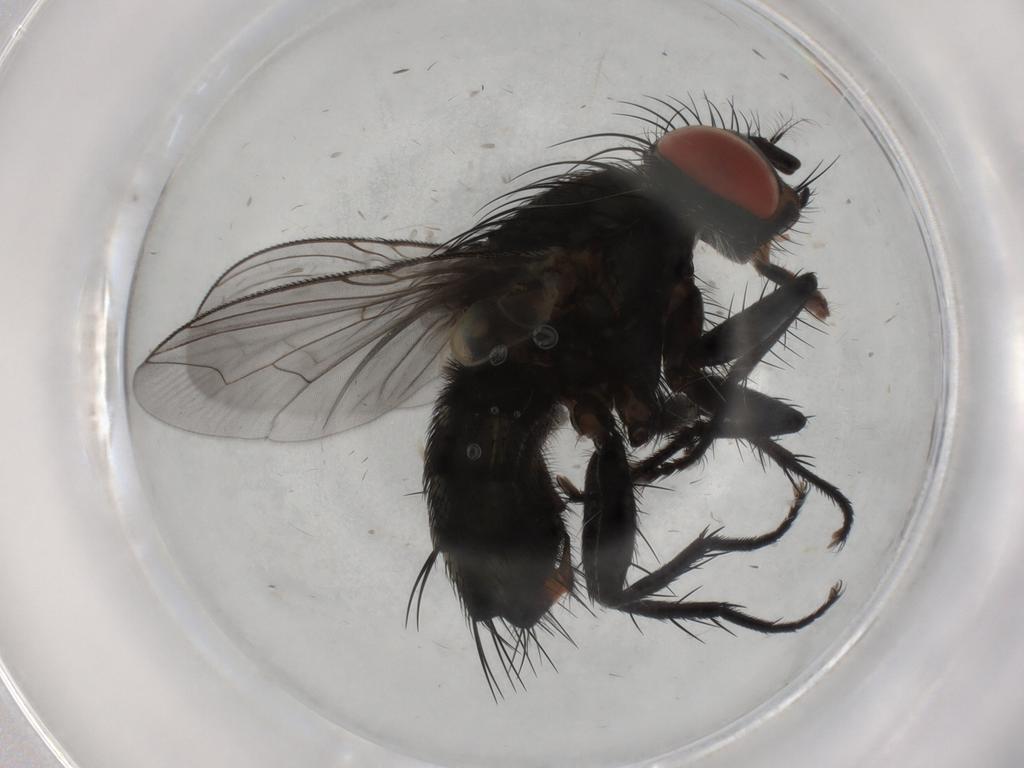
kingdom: Animalia
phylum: Arthropoda
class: Insecta
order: Diptera
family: Sarcophagidae
